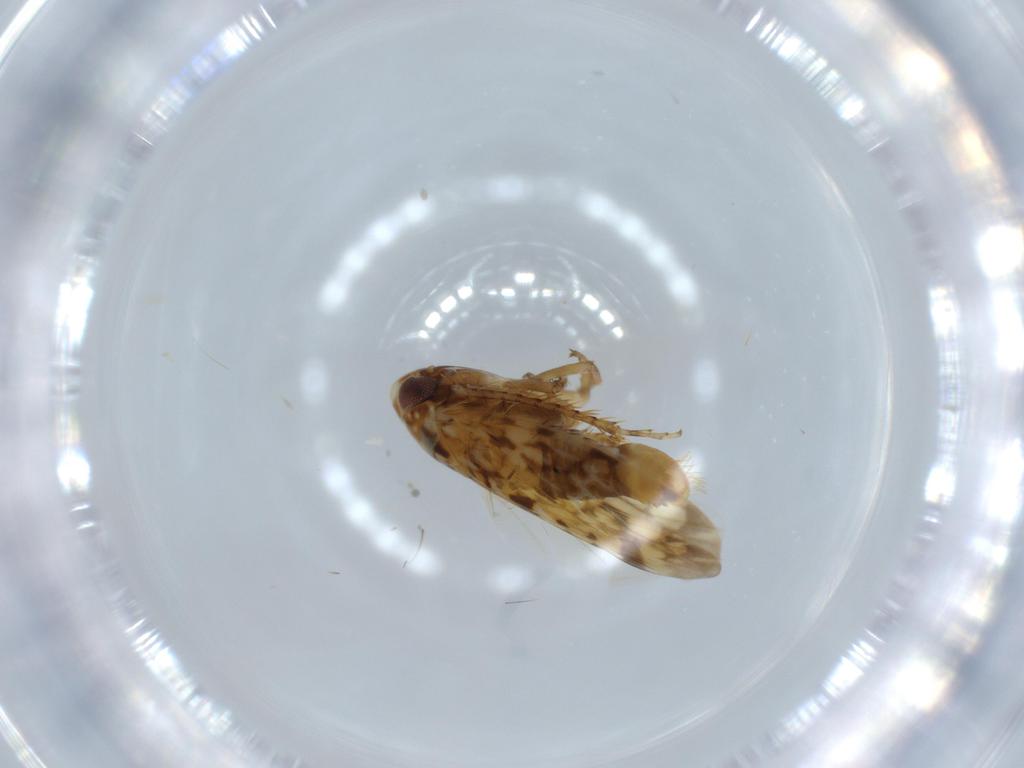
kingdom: Animalia
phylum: Arthropoda
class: Insecta
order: Hemiptera
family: Cicadellidae
